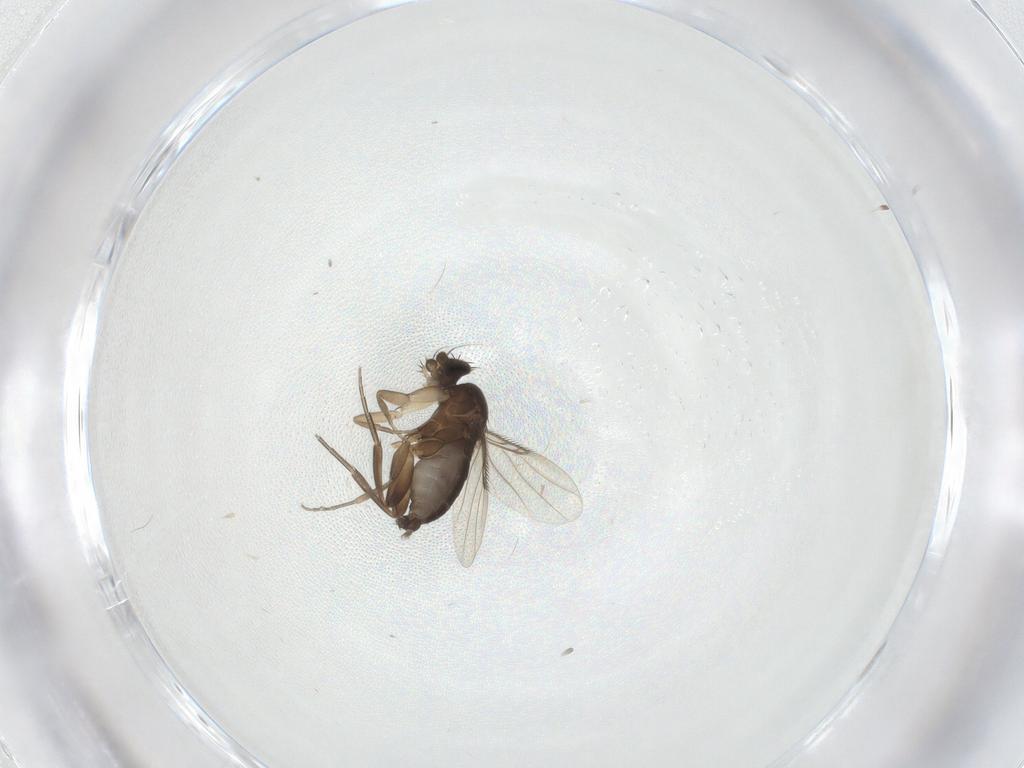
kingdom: Animalia
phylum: Arthropoda
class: Insecta
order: Diptera
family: Phoridae
